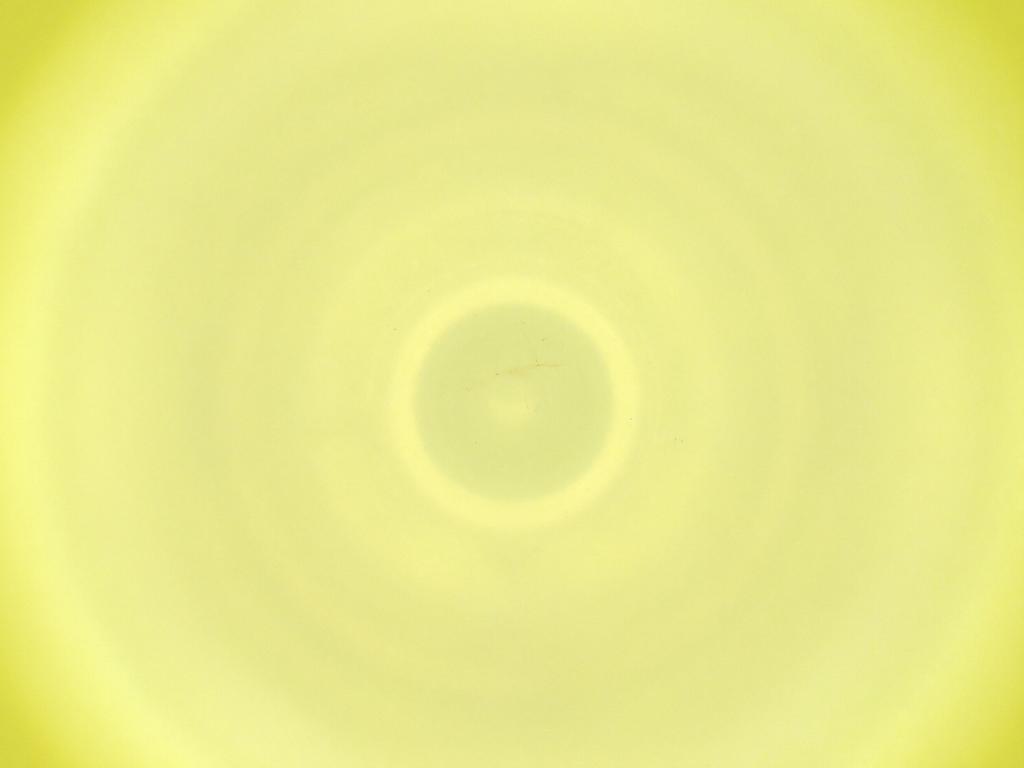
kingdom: Animalia
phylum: Arthropoda
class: Insecta
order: Diptera
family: Cecidomyiidae
